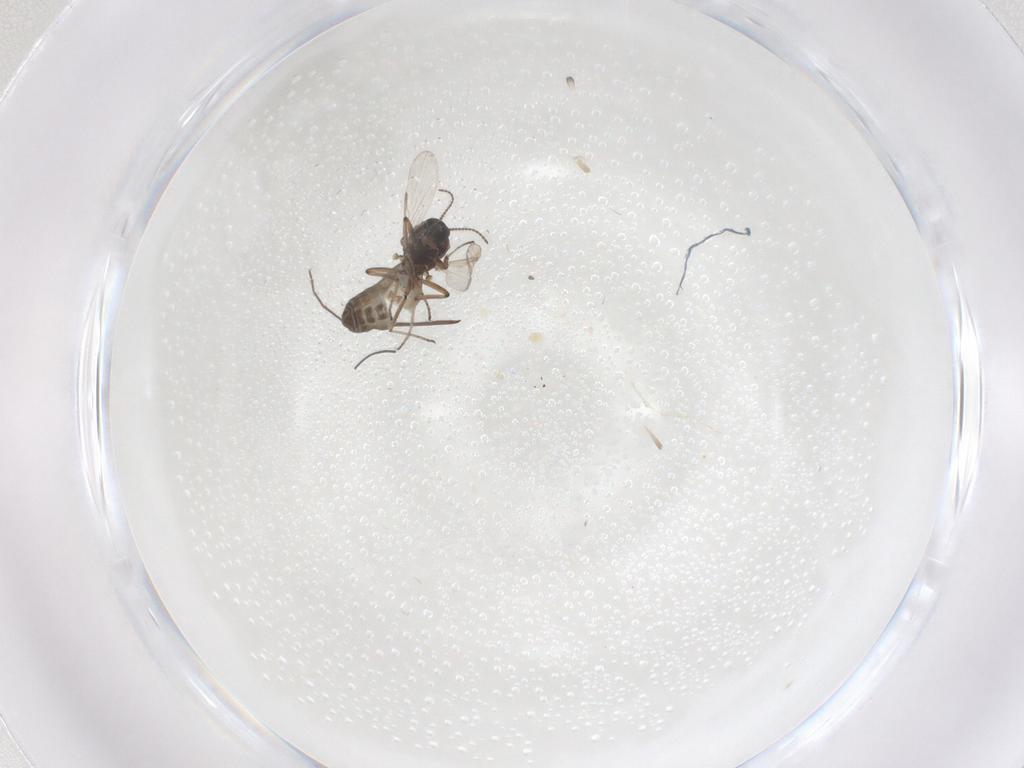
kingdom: Animalia
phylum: Arthropoda
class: Insecta
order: Diptera
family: Ceratopogonidae
